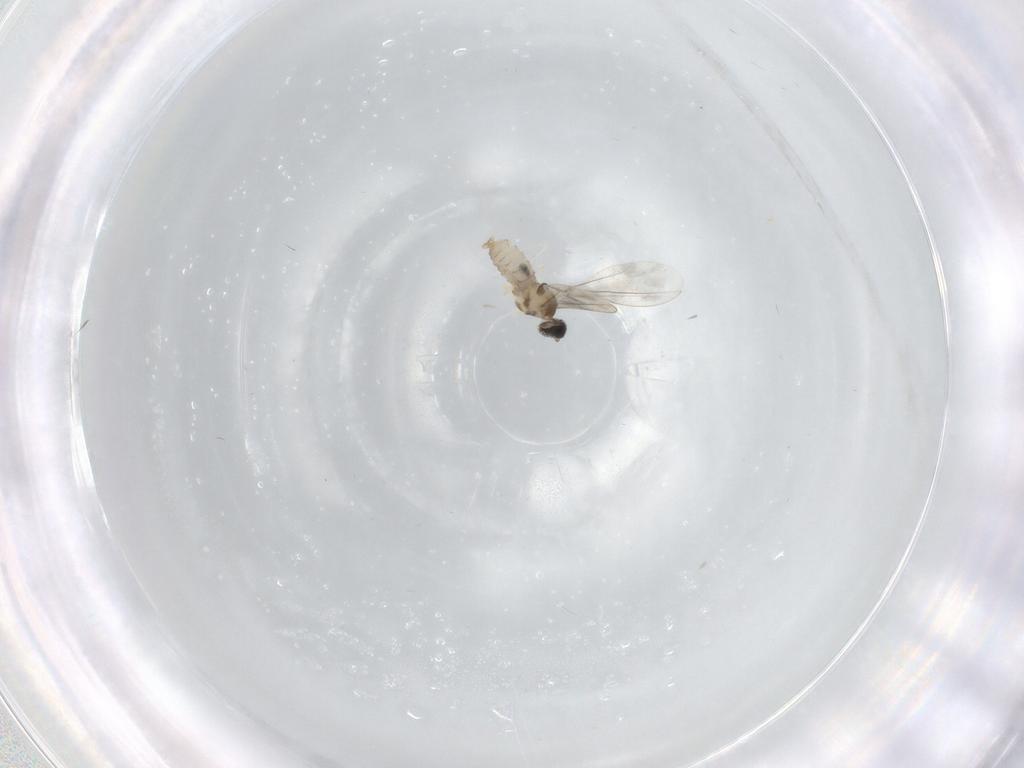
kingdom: Animalia
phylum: Arthropoda
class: Insecta
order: Diptera
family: Cecidomyiidae
